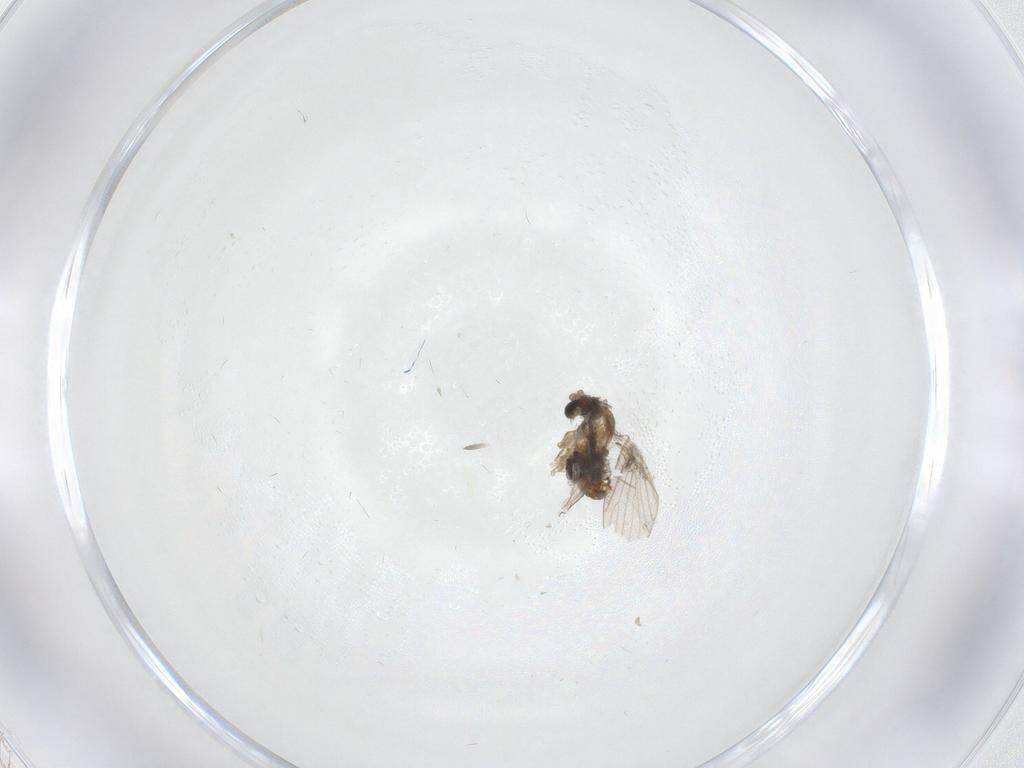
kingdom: Animalia
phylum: Arthropoda
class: Insecta
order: Diptera
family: Cecidomyiidae
